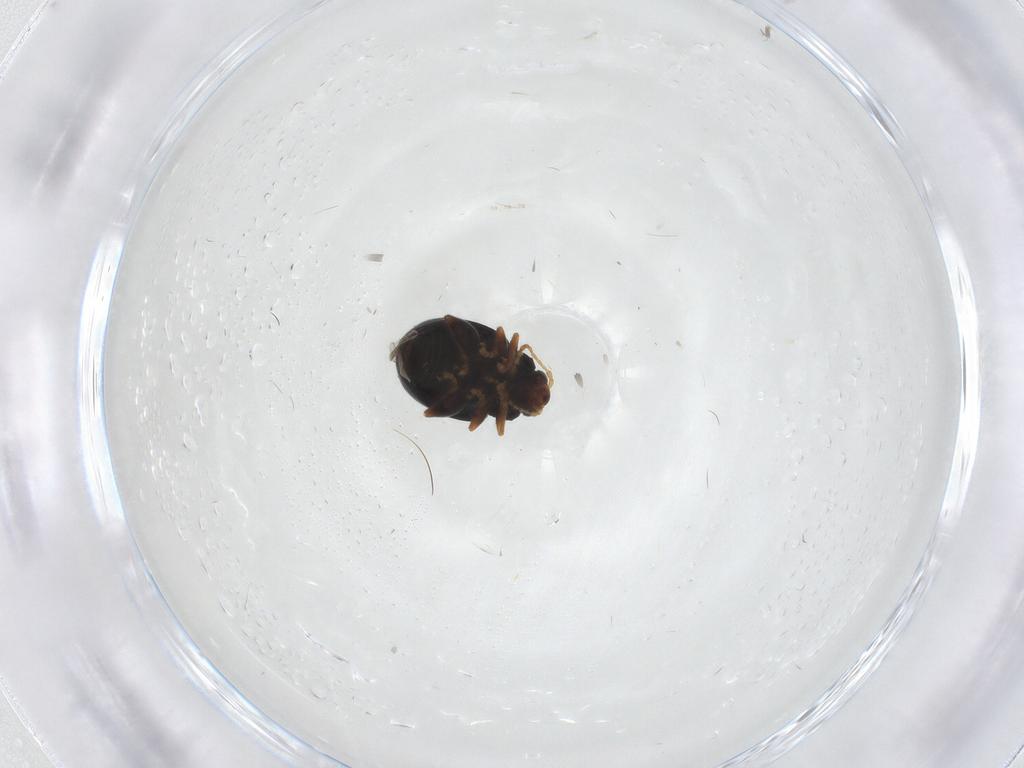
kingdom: Animalia
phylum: Arthropoda
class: Insecta
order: Coleoptera
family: Chrysomelidae
